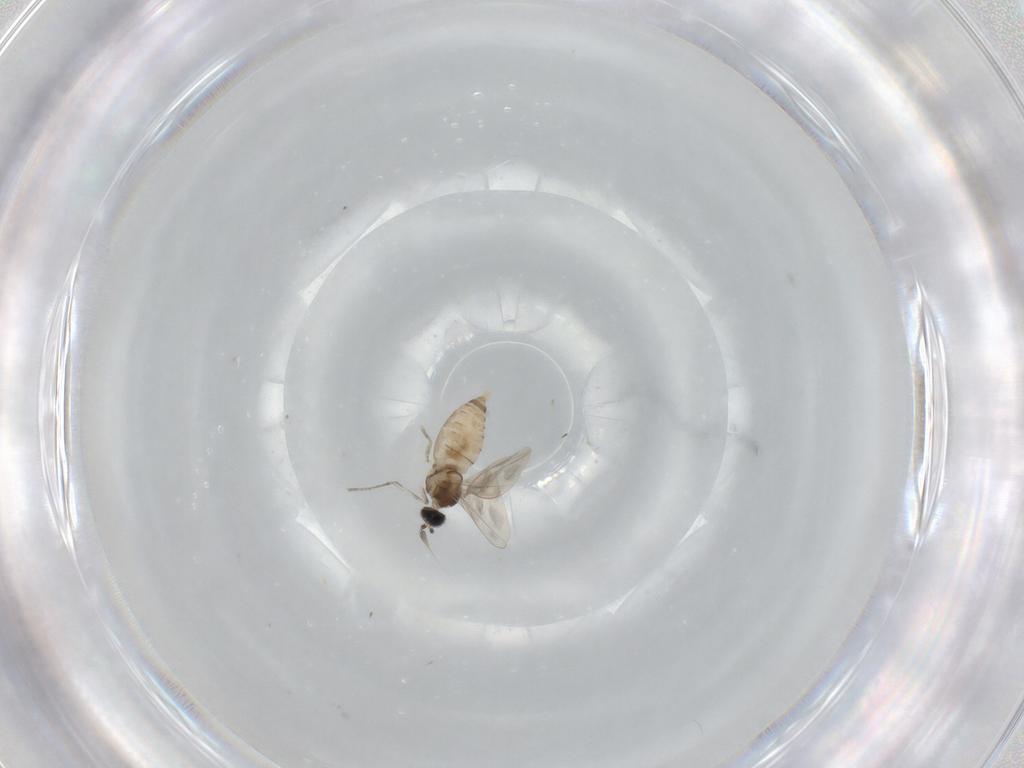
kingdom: Animalia
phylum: Arthropoda
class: Insecta
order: Diptera
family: Cecidomyiidae
